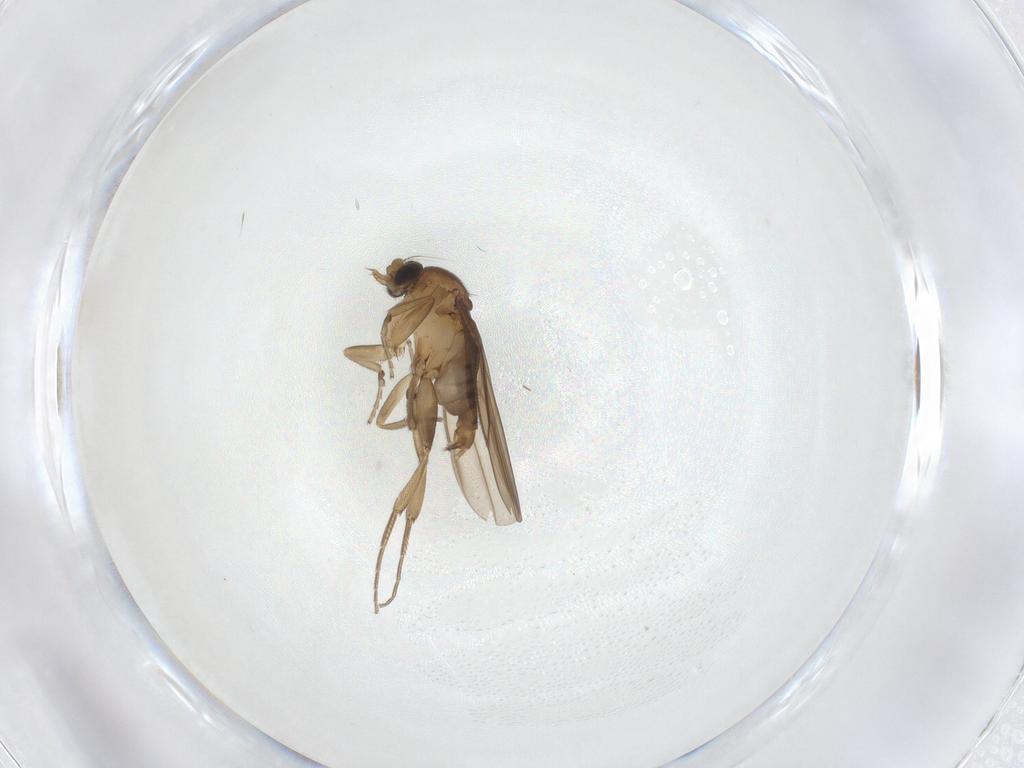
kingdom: Animalia
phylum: Arthropoda
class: Insecta
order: Diptera
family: Phoridae
